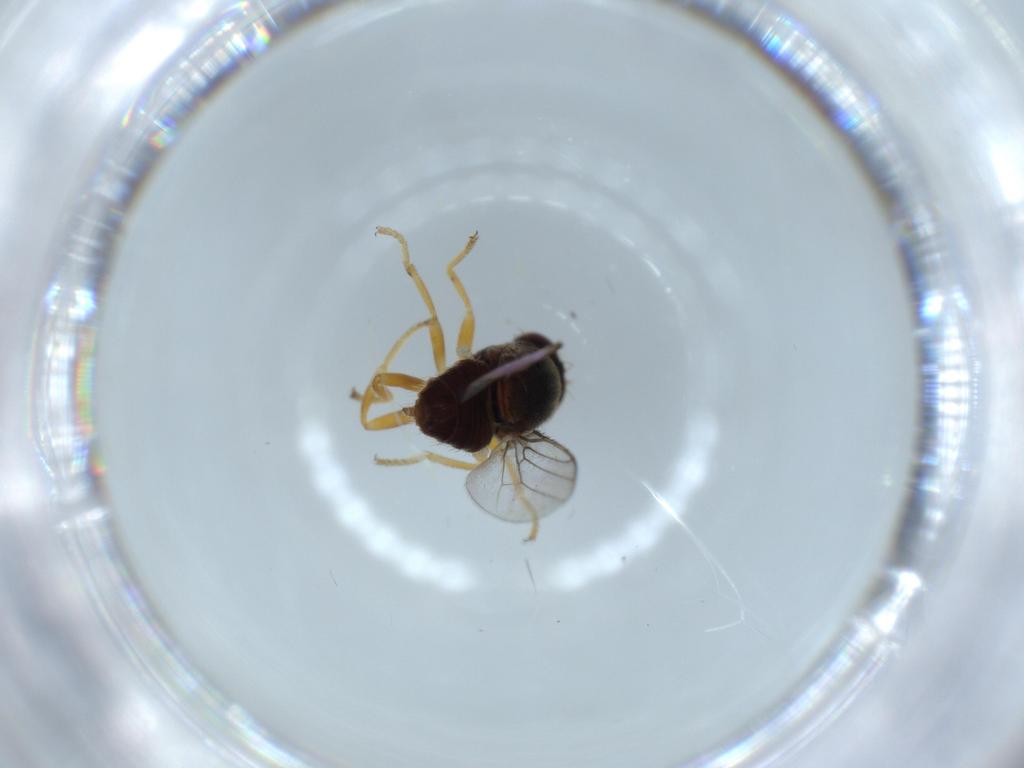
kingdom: Animalia
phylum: Arthropoda
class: Insecta
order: Diptera
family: Chloropidae
